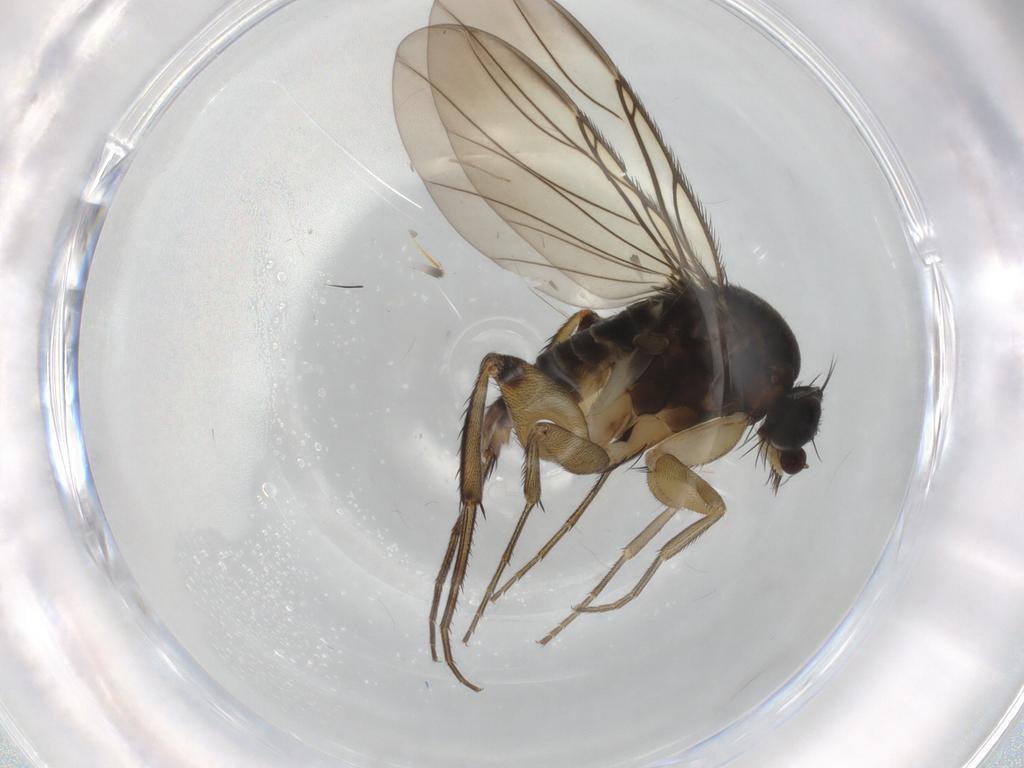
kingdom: Animalia
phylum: Arthropoda
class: Insecta
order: Diptera
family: Phoridae
